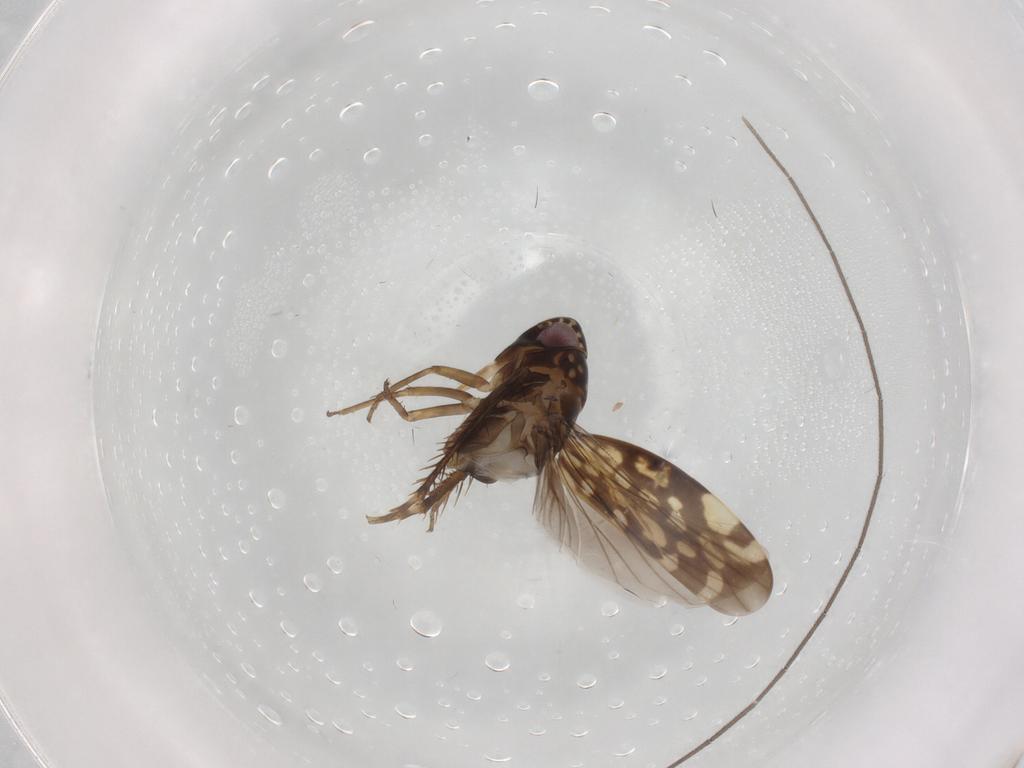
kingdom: Animalia
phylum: Arthropoda
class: Insecta
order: Hemiptera
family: Cicadellidae
